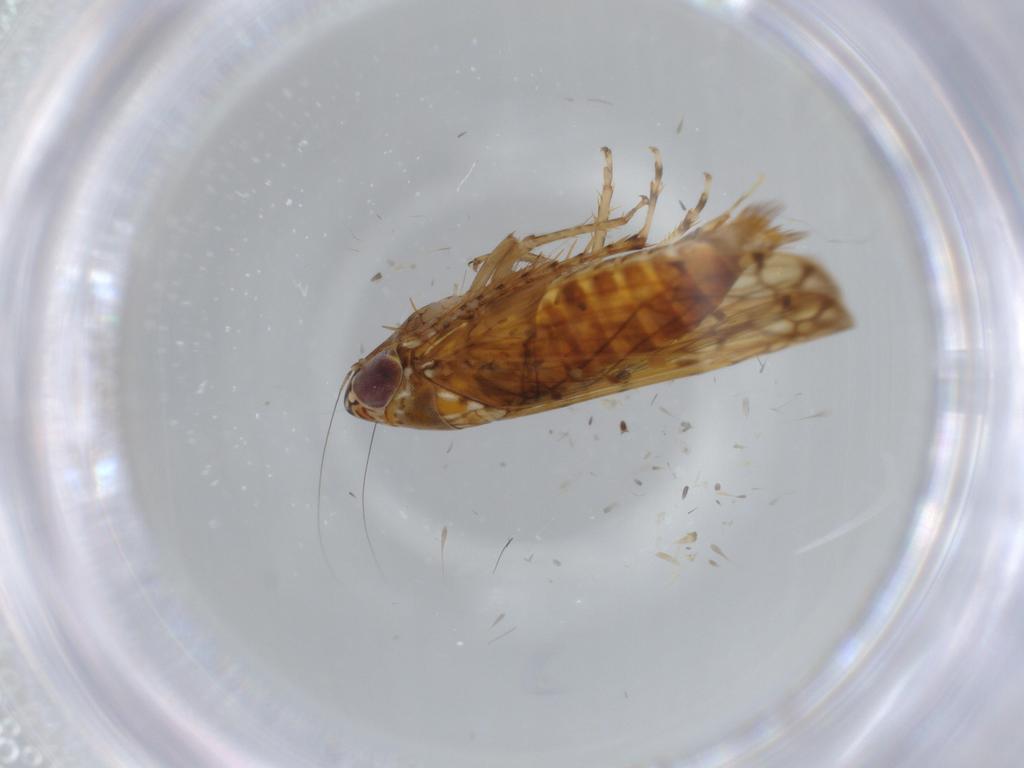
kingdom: Animalia
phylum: Arthropoda
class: Insecta
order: Hemiptera
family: Cicadellidae
